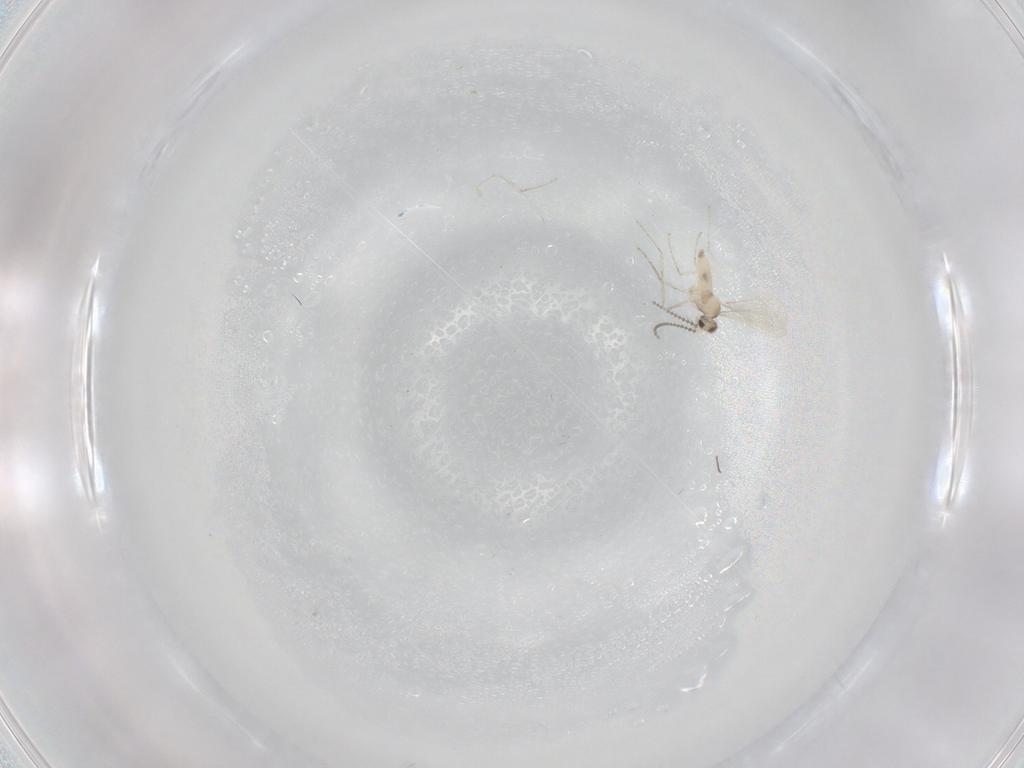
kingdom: Animalia
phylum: Arthropoda
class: Insecta
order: Diptera
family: Cecidomyiidae
